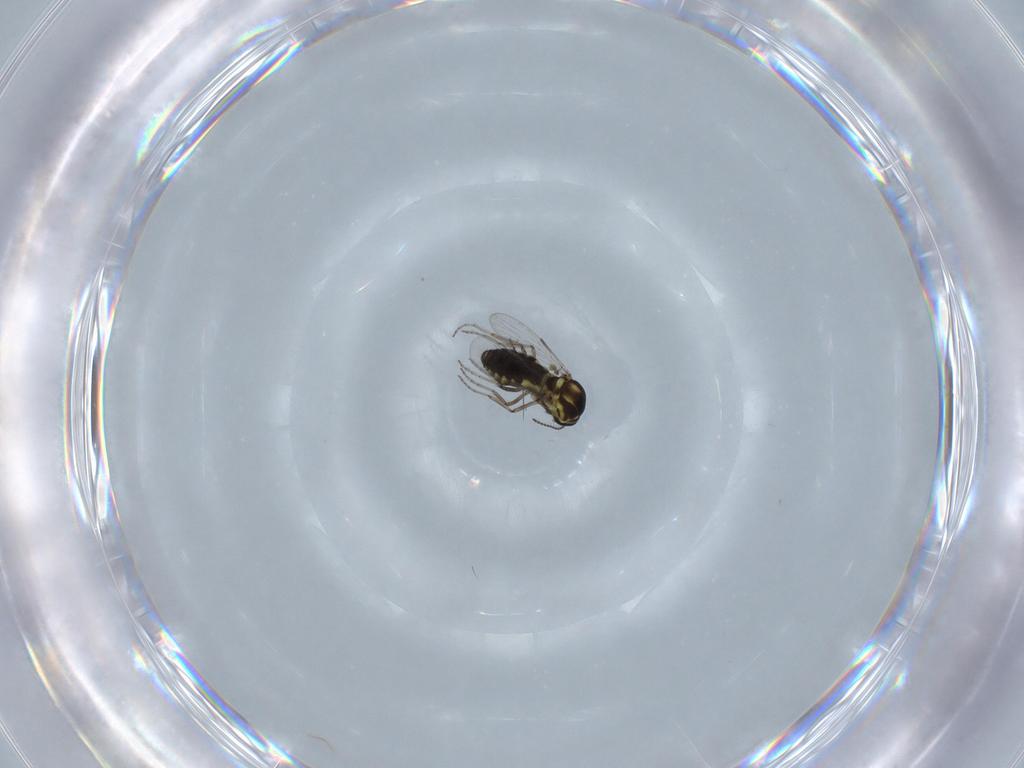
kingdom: Animalia
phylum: Arthropoda
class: Insecta
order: Diptera
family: Ceratopogonidae
